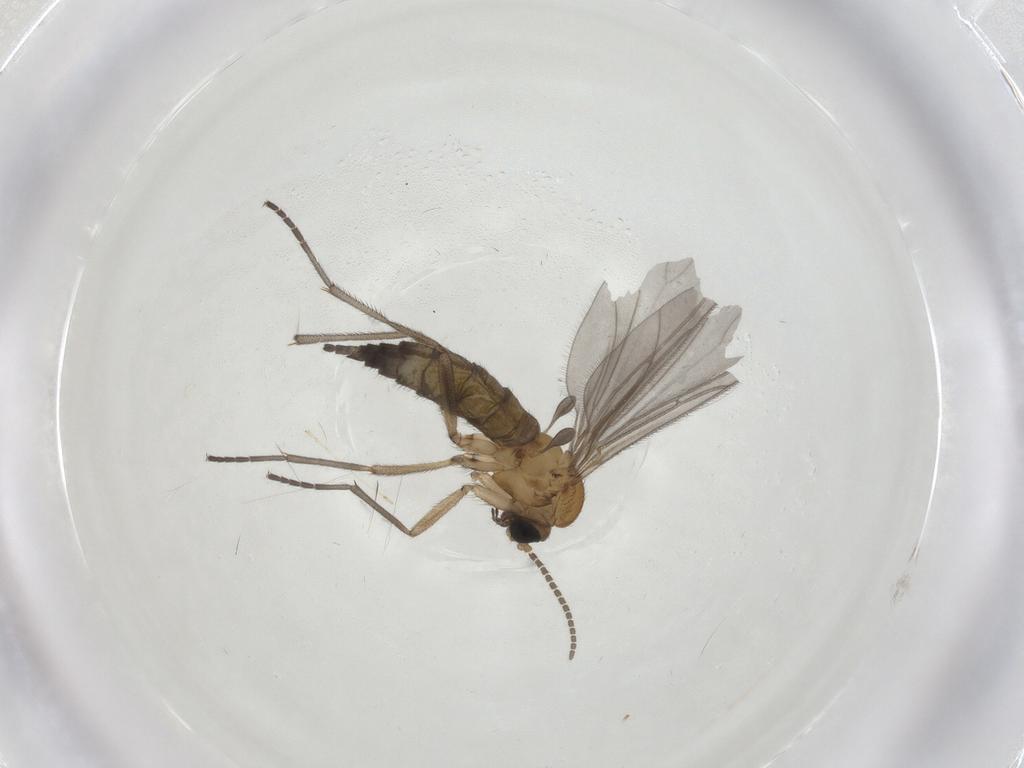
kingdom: Animalia
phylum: Arthropoda
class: Insecta
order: Diptera
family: Sciaridae
